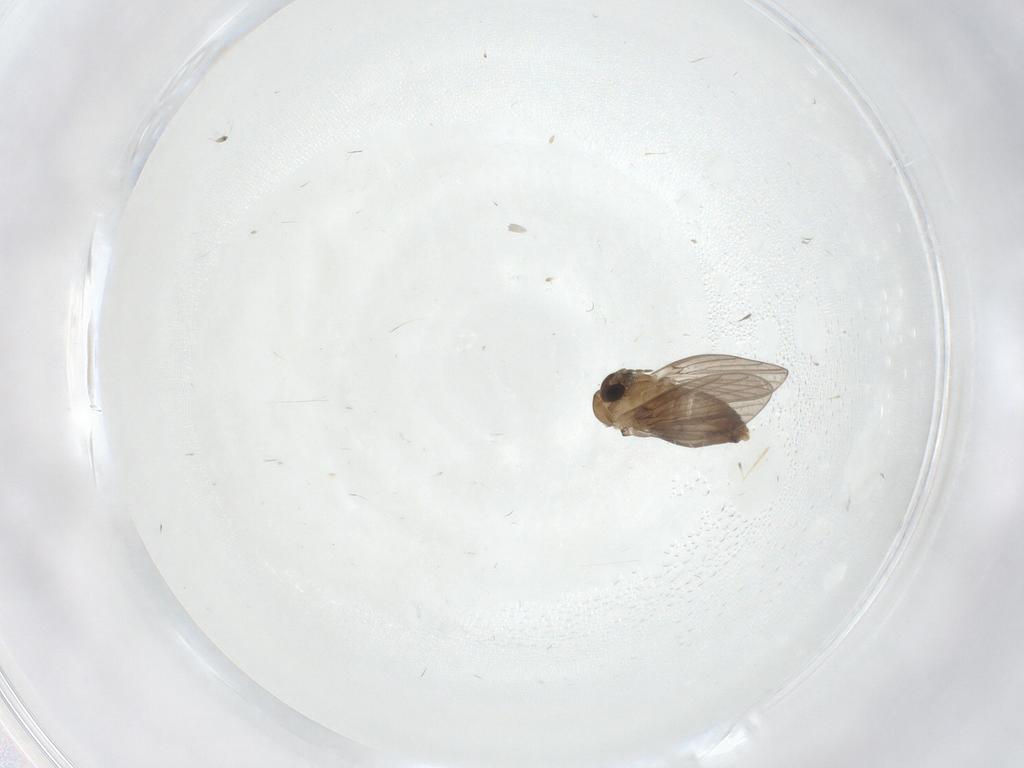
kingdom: Animalia
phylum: Arthropoda
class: Insecta
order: Diptera
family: Dolichopodidae
